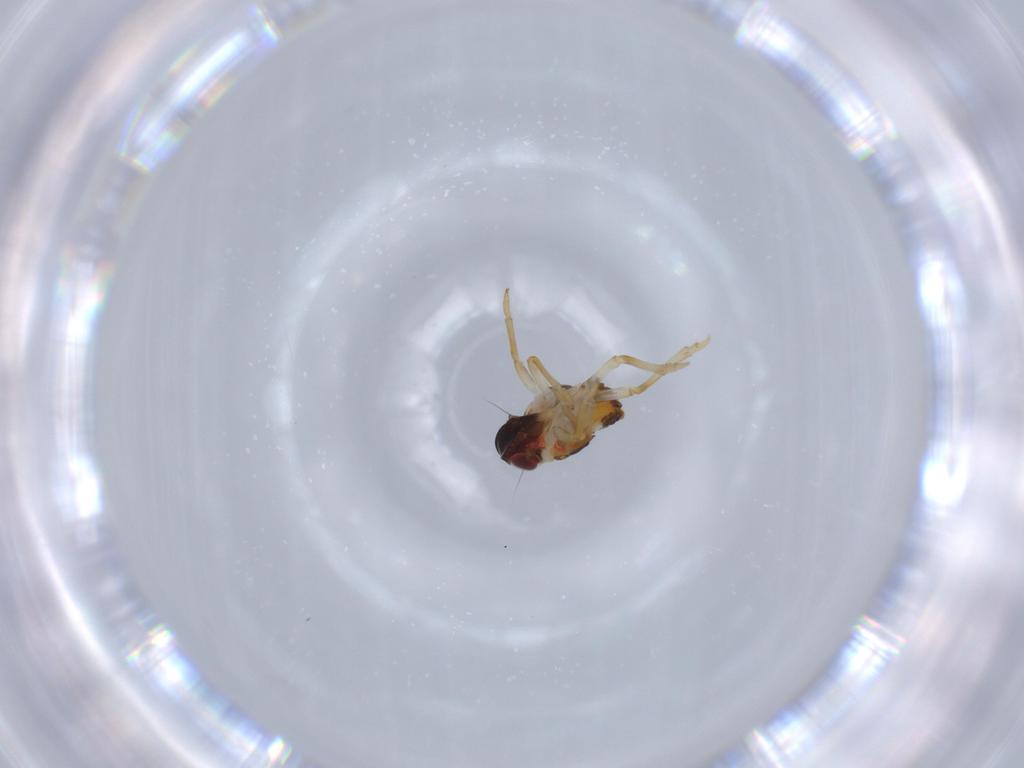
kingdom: Animalia
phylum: Arthropoda
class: Insecta
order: Hemiptera
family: Issidae
